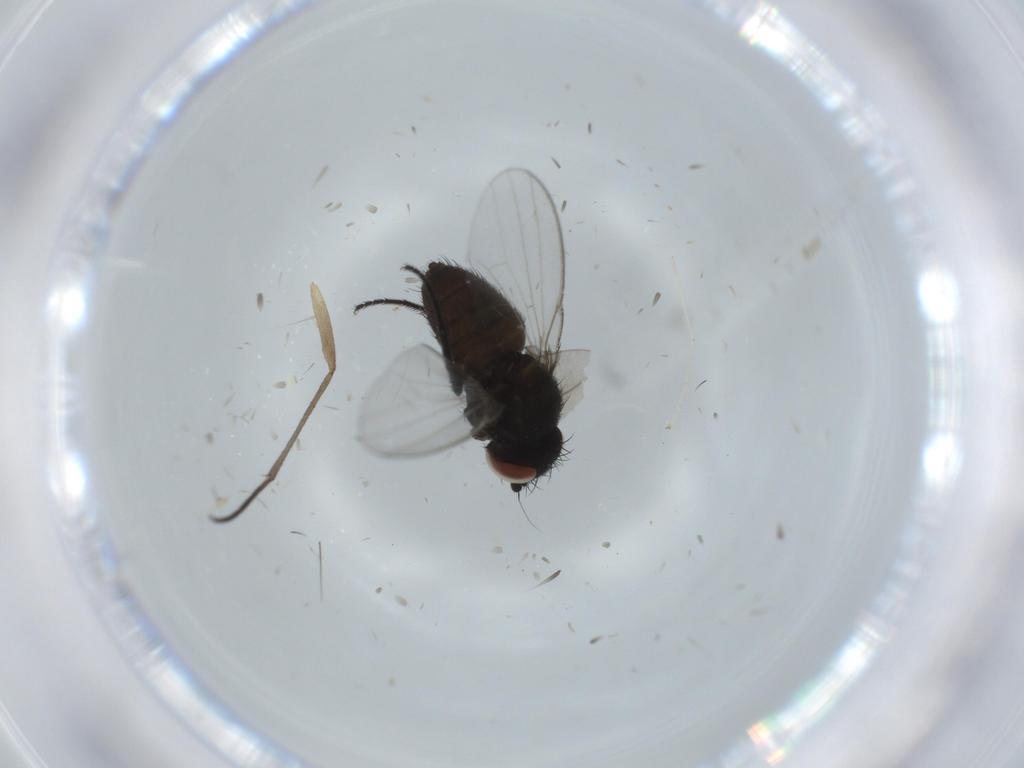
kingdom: Animalia
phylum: Arthropoda
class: Insecta
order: Diptera
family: Milichiidae
